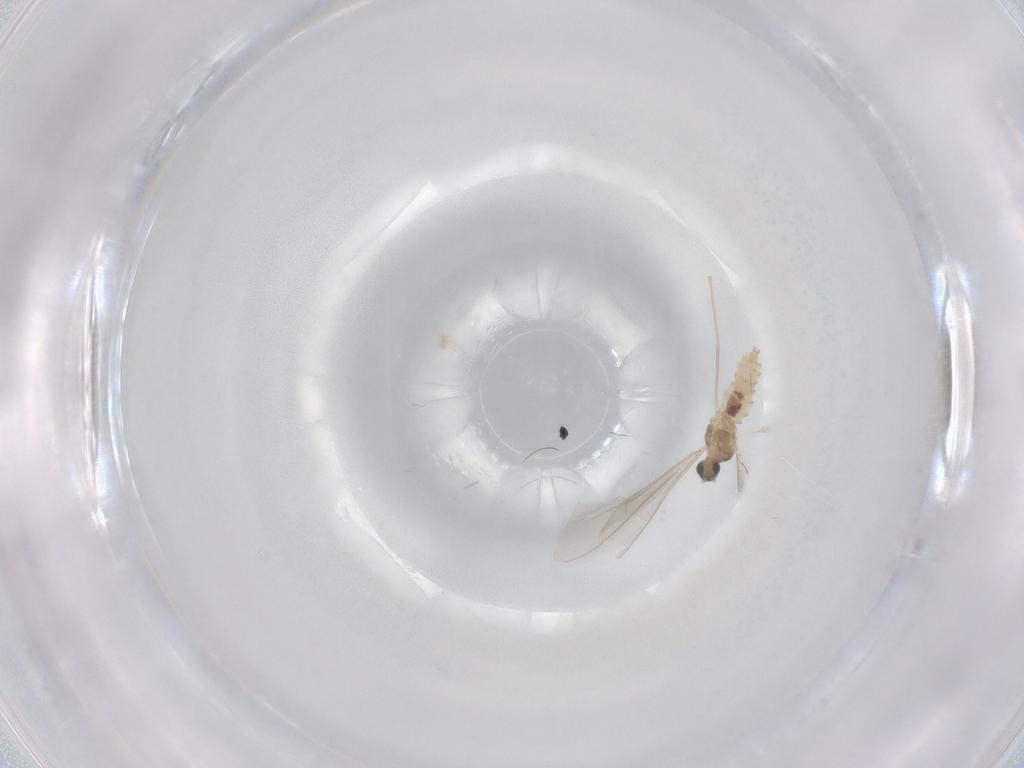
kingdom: Animalia
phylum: Arthropoda
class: Insecta
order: Diptera
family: Cecidomyiidae
